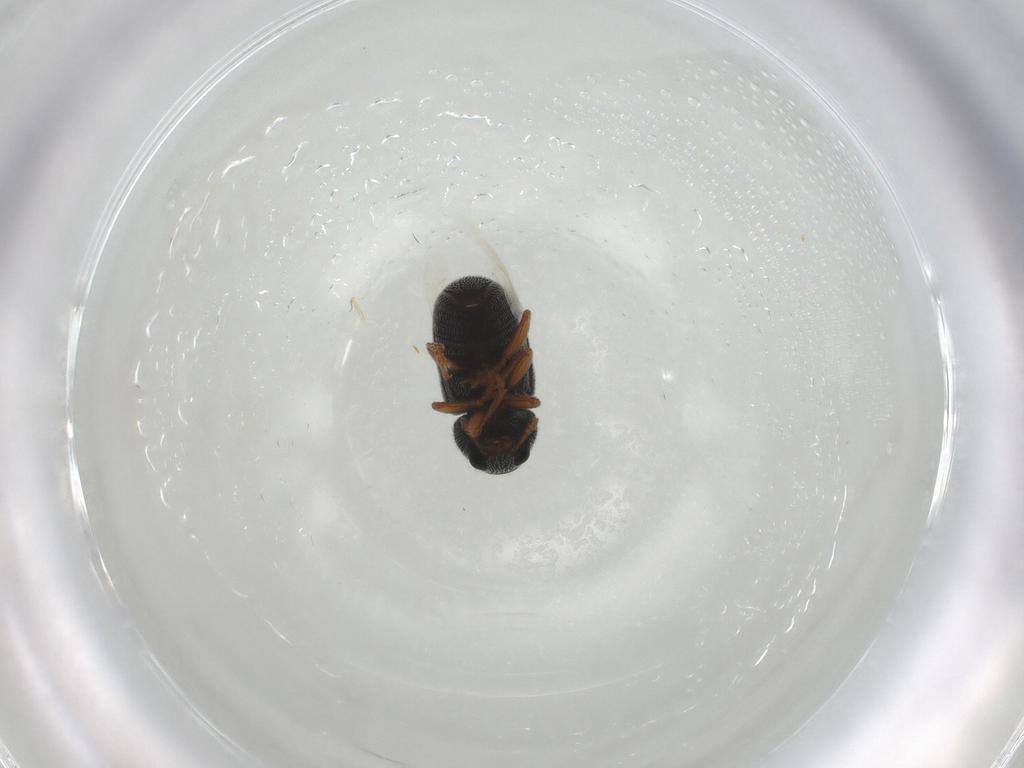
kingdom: Animalia
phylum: Arthropoda
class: Insecta
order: Coleoptera
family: Anthribidae
